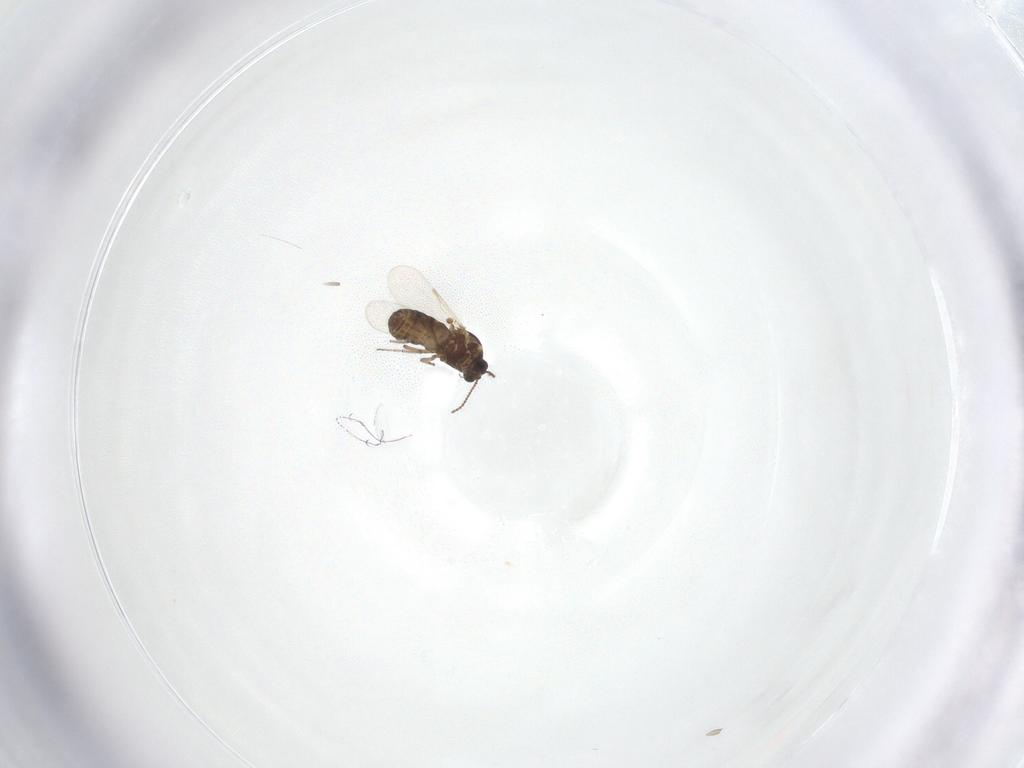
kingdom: Animalia
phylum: Arthropoda
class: Insecta
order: Diptera
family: Ceratopogonidae
